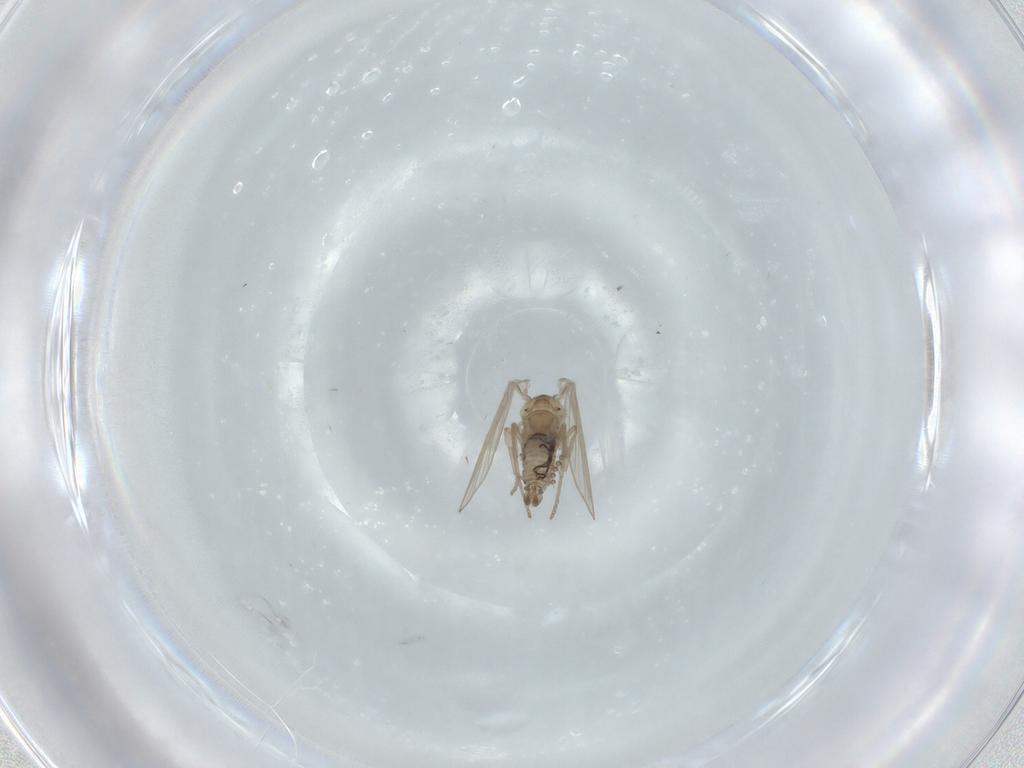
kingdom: Animalia
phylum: Arthropoda
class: Insecta
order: Diptera
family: Psychodidae
